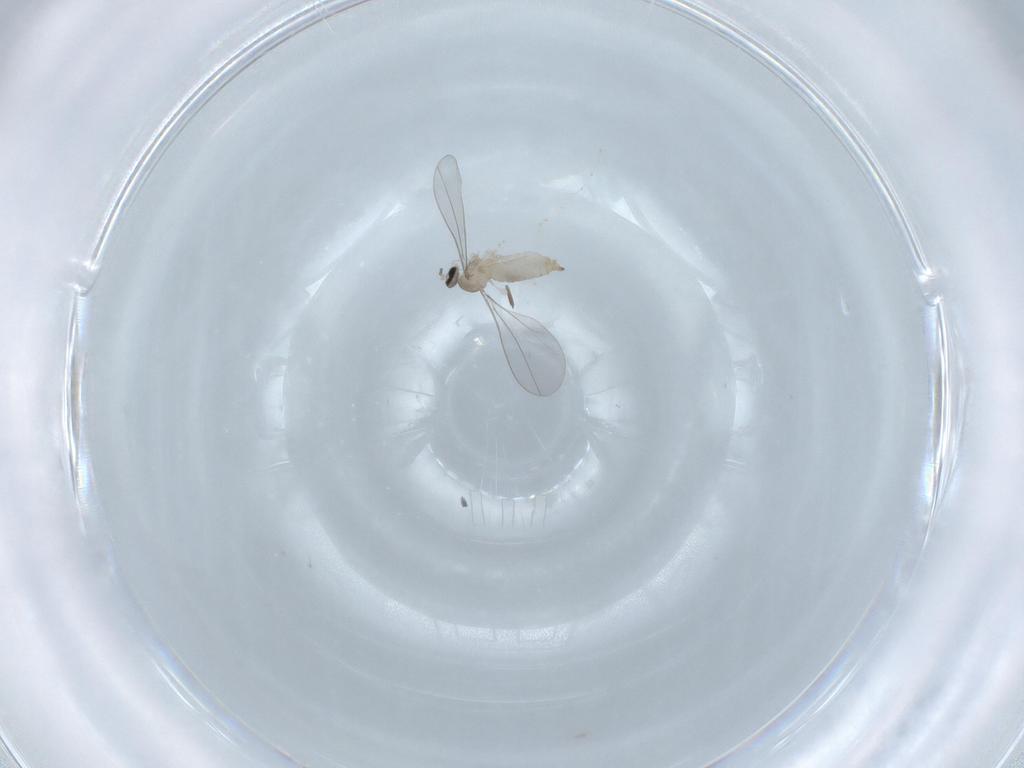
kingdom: Animalia
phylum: Arthropoda
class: Insecta
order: Diptera
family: Cecidomyiidae
